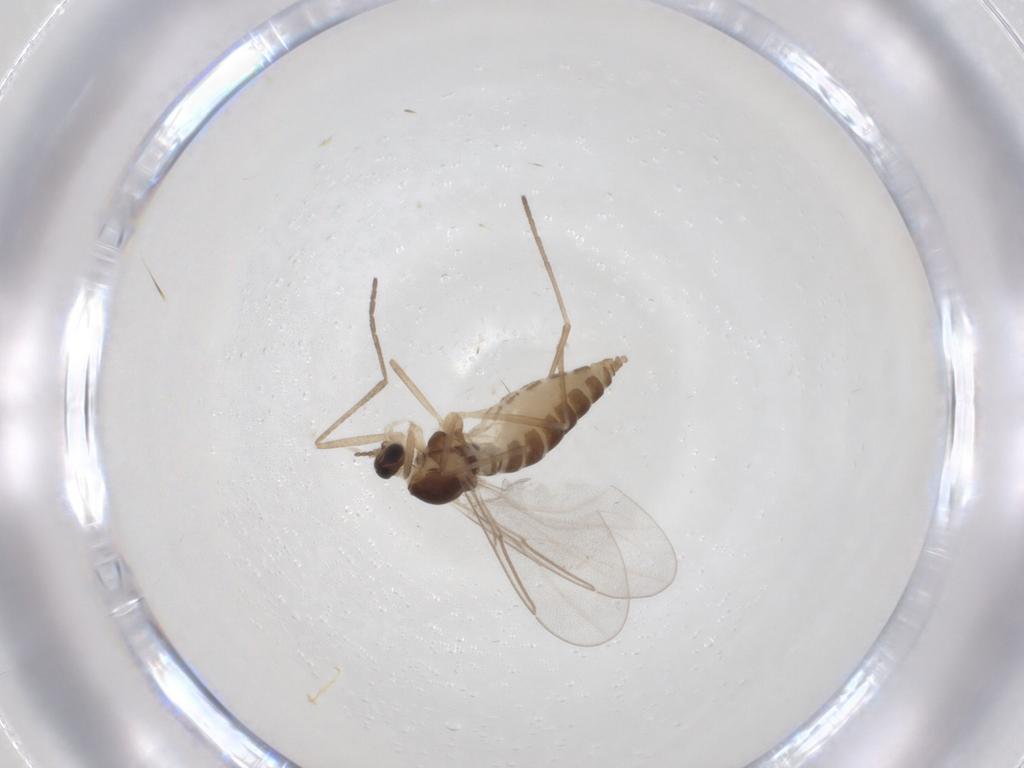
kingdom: Animalia
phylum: Arthropoda
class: Insecta
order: Diptera
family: Cecidomyiidae
